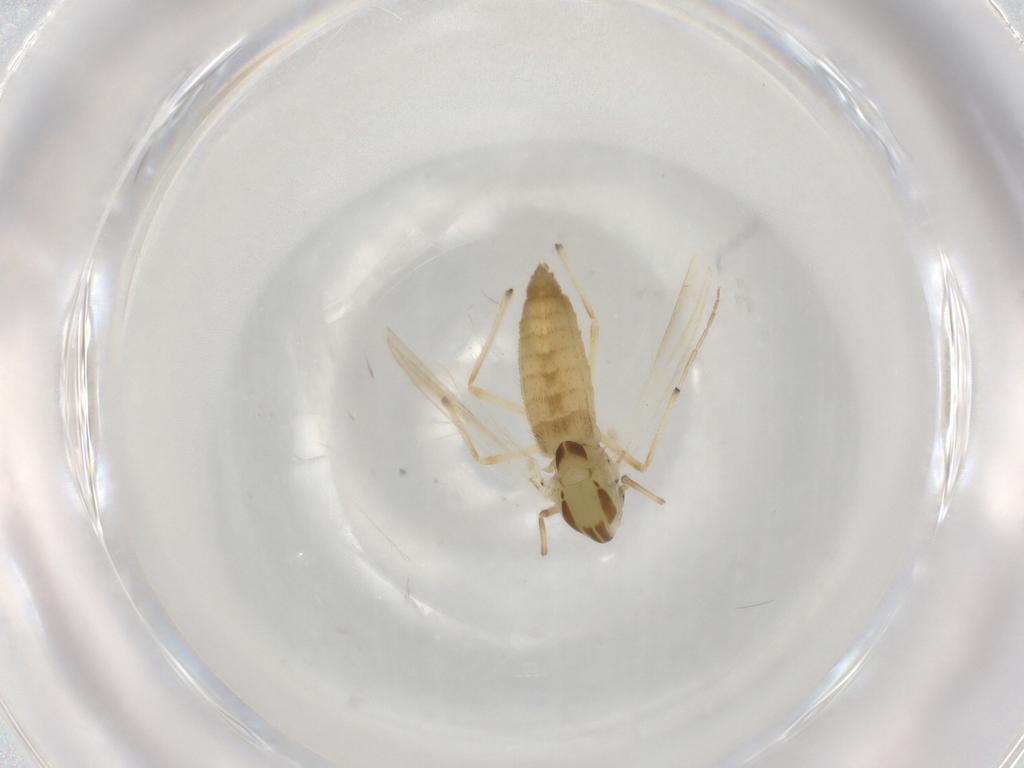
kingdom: Animalia
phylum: Arthropoda
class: Insecta
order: Diptera
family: Chironomidae
